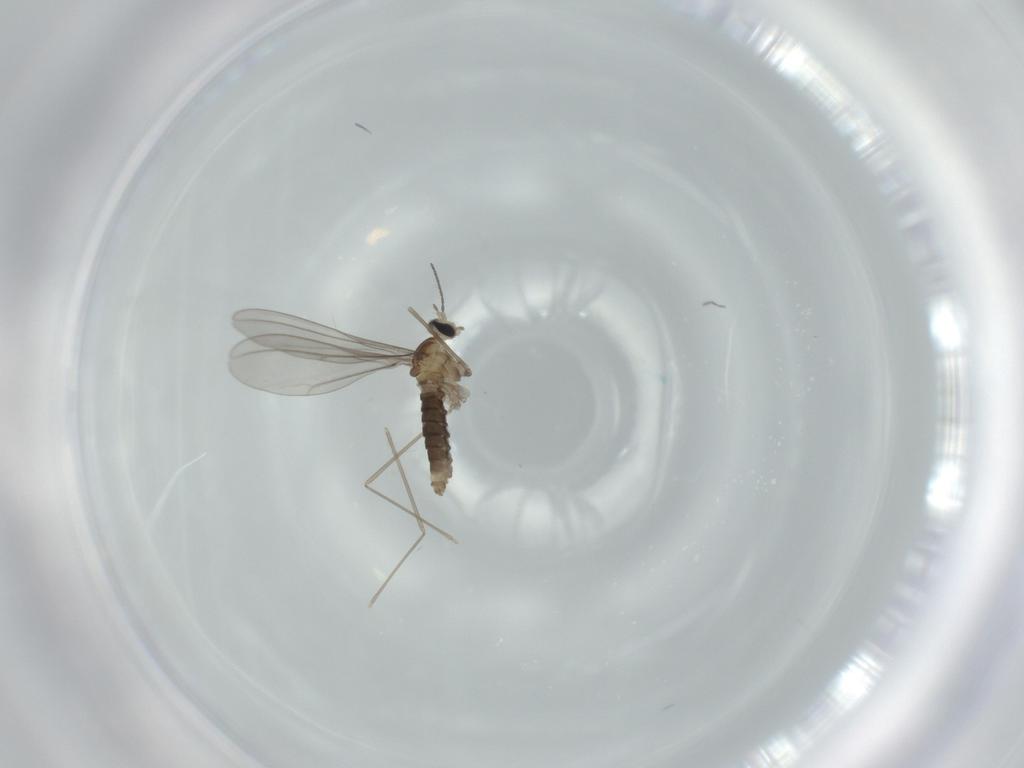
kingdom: Animalia
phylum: Arthropoda
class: Insecta
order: Diptera
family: Cecidomyiidae
